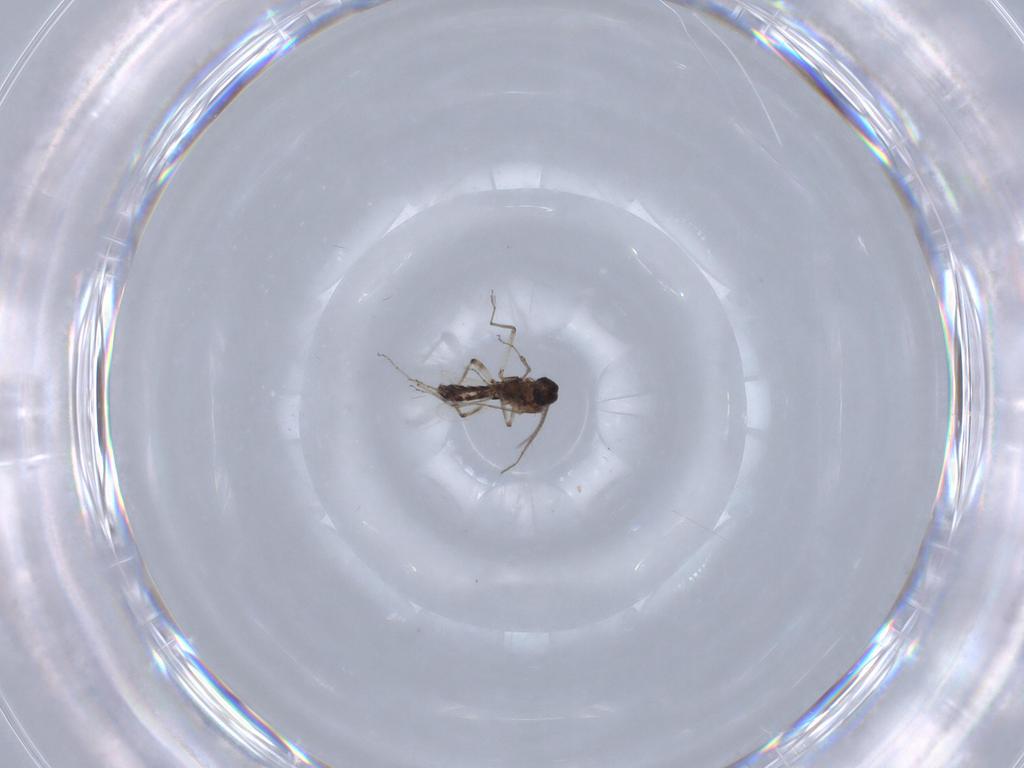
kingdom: Animalia
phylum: Arthropoda
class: Insecta
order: Diptera
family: Ceratopogonidae
